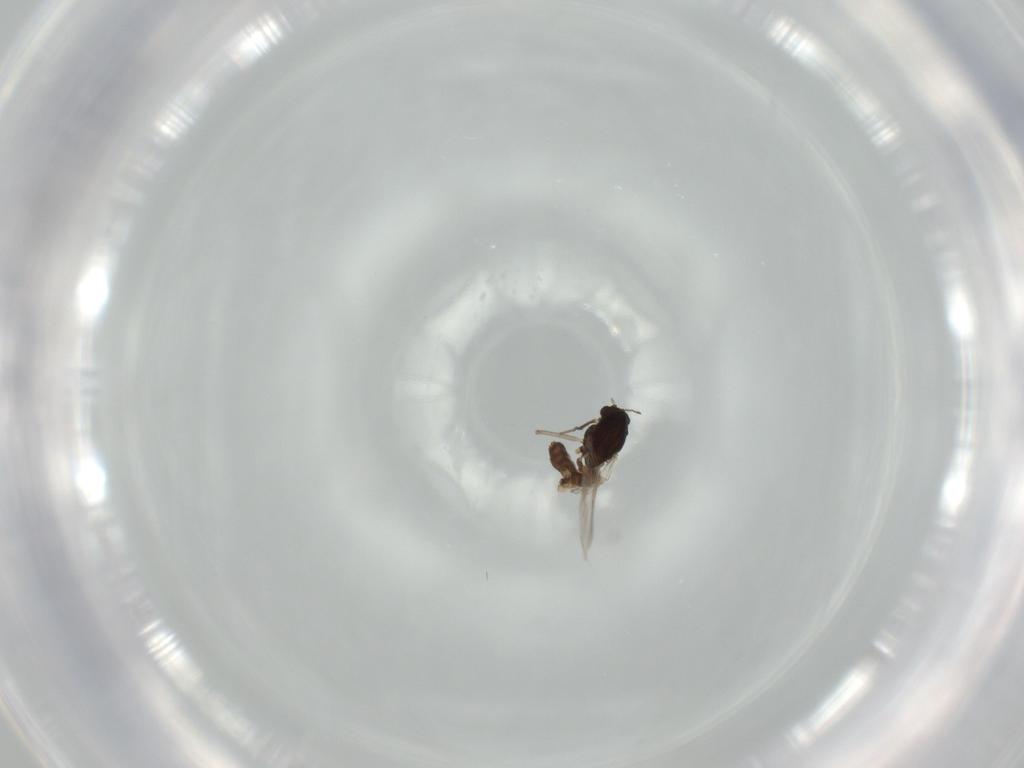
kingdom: Animalia
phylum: Arthropoda
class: Insecta
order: Diptera
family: Chironomidae
